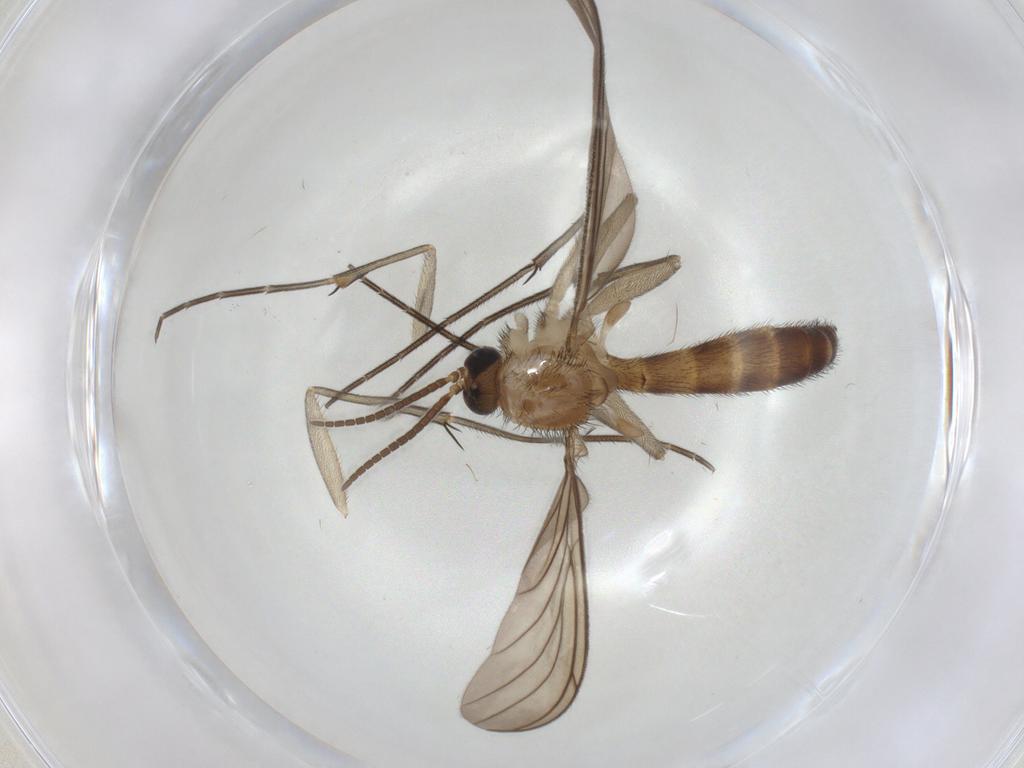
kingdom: Animalia
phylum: Arthropoda
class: Insecta
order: Diptera
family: Keroplatidae
